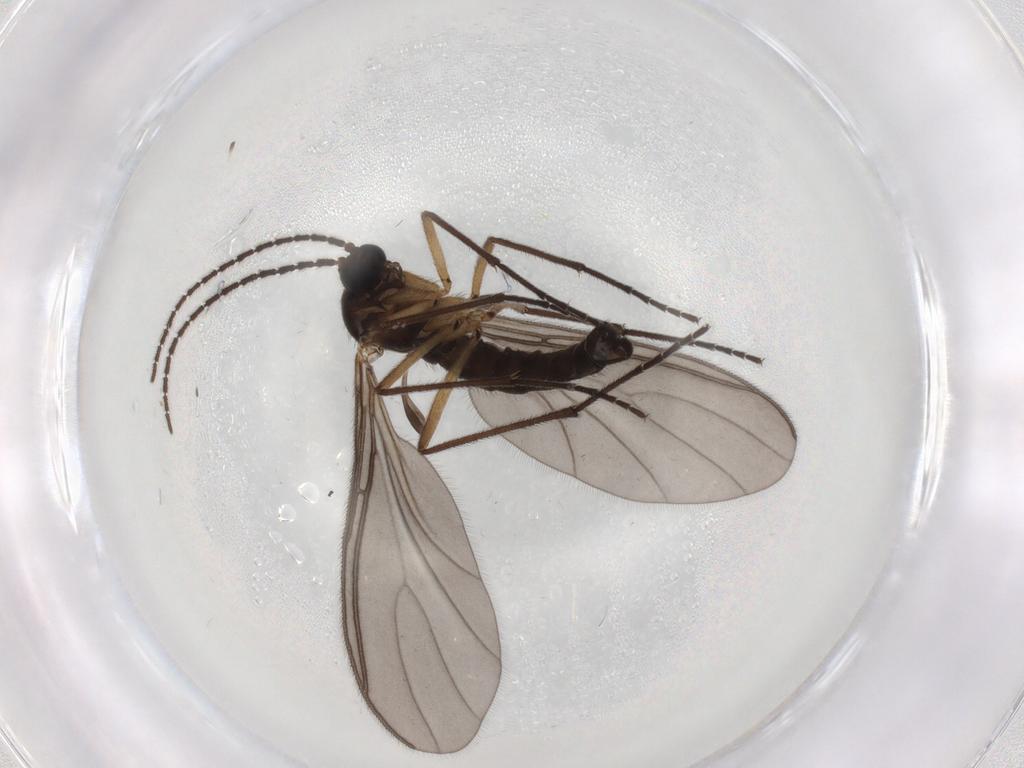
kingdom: Animalia
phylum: Arthropoda
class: Insecta
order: Diptera
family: Sciaridae
